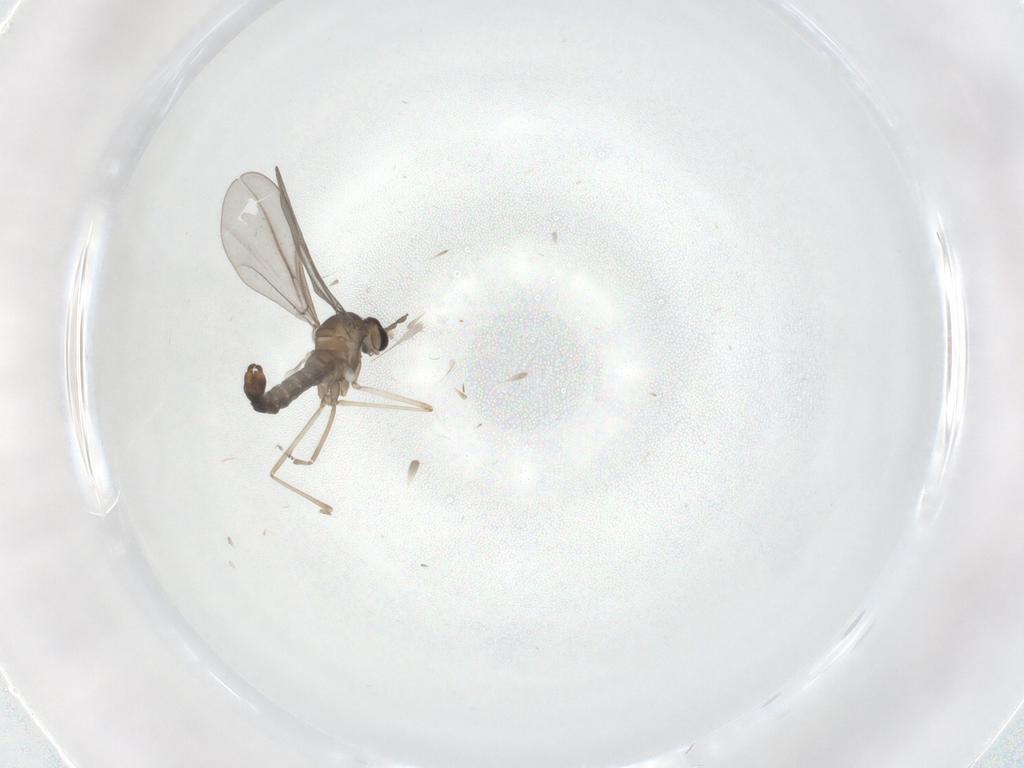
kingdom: Animalia
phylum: Arthropoda
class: Insecta
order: Diptera
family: Cecidomyiidae
